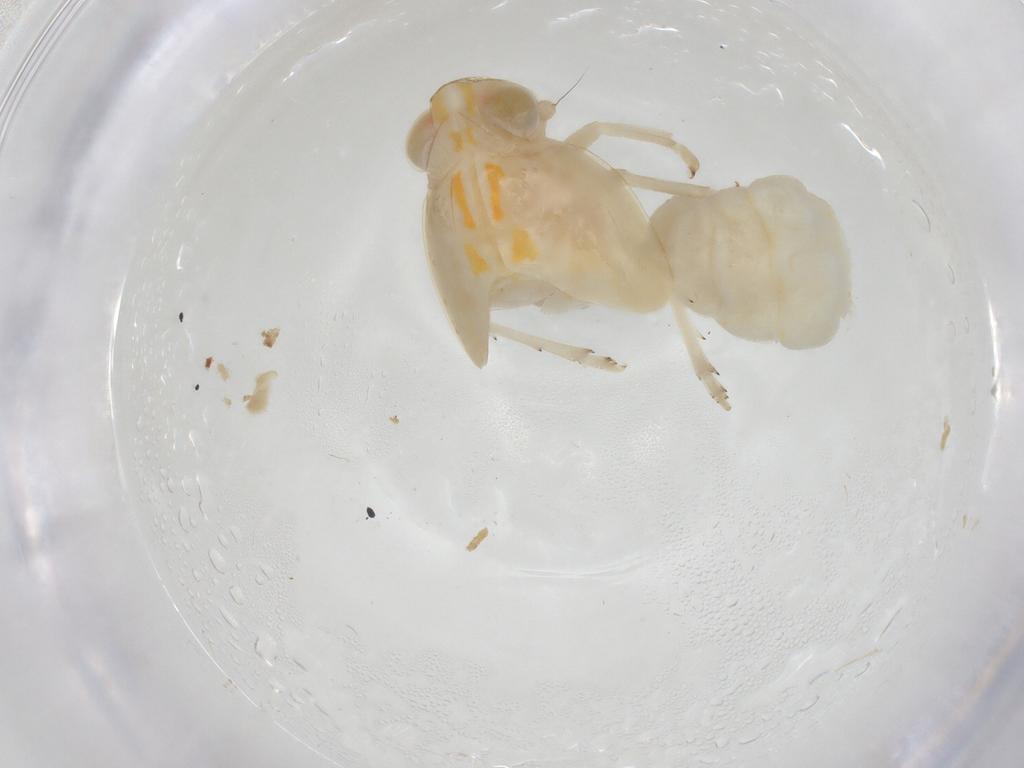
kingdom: Animalia
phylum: Arthropoda
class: Insecta
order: Hemiptera
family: Nogodinidae
